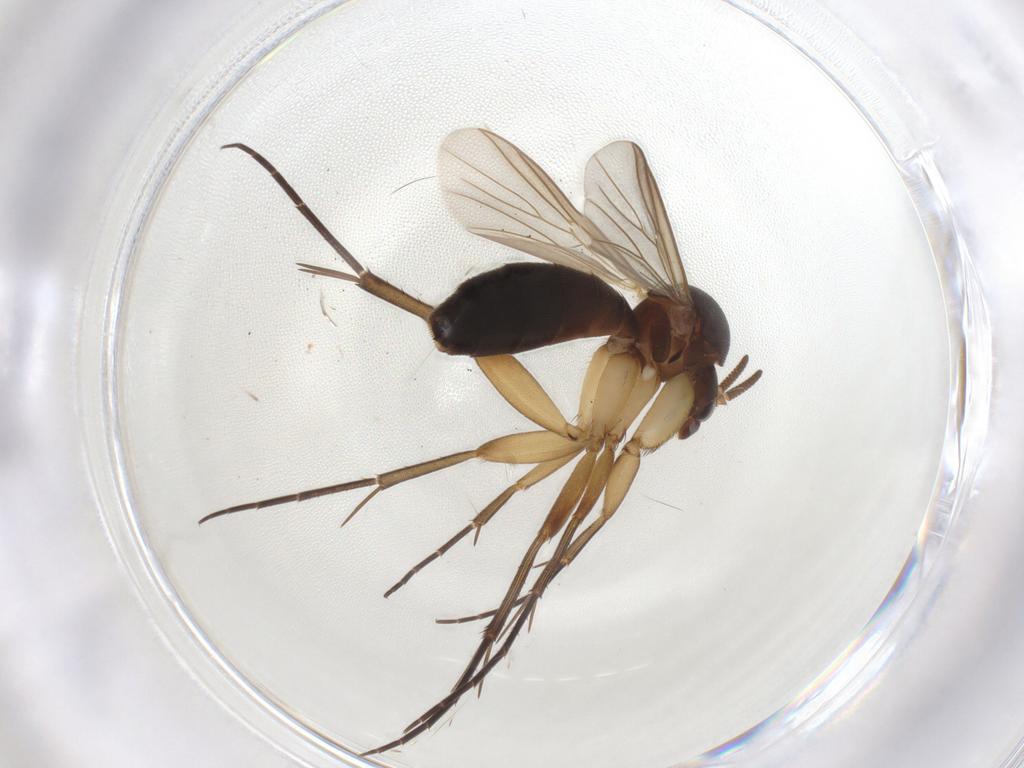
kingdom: Animalia
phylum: Arthropoda
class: Insecta
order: Diptera
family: Mycetophilidae
